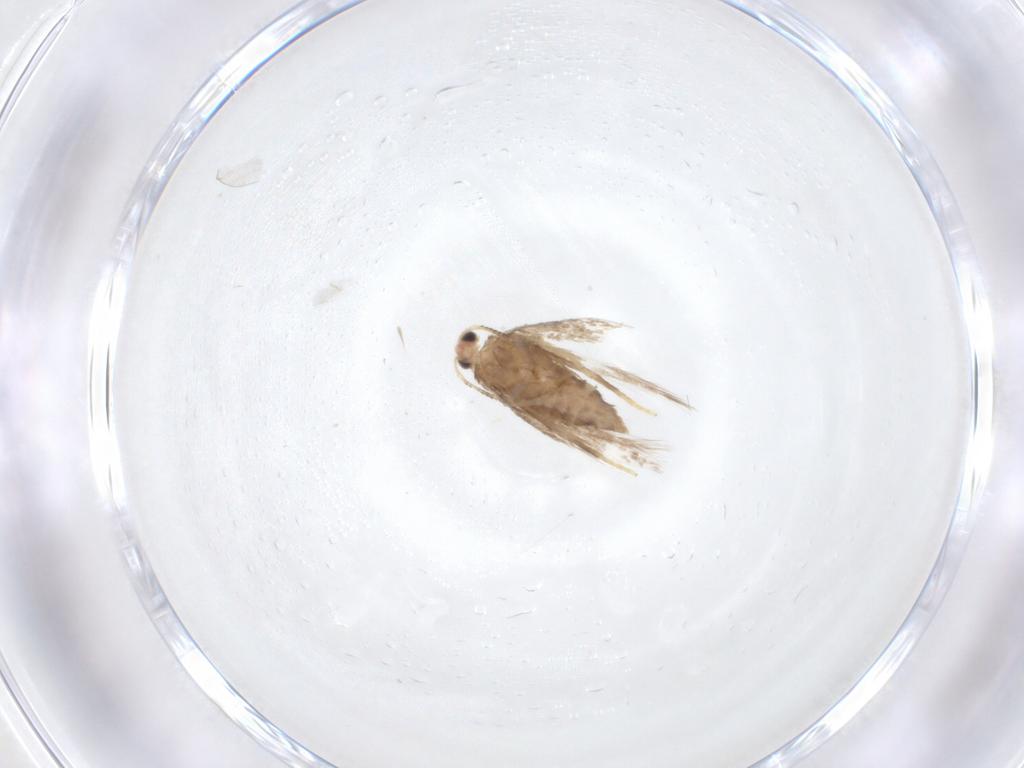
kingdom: Animalia
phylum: Arthropoda
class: Insecta
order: Lepidoptera
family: Nepticulidae
